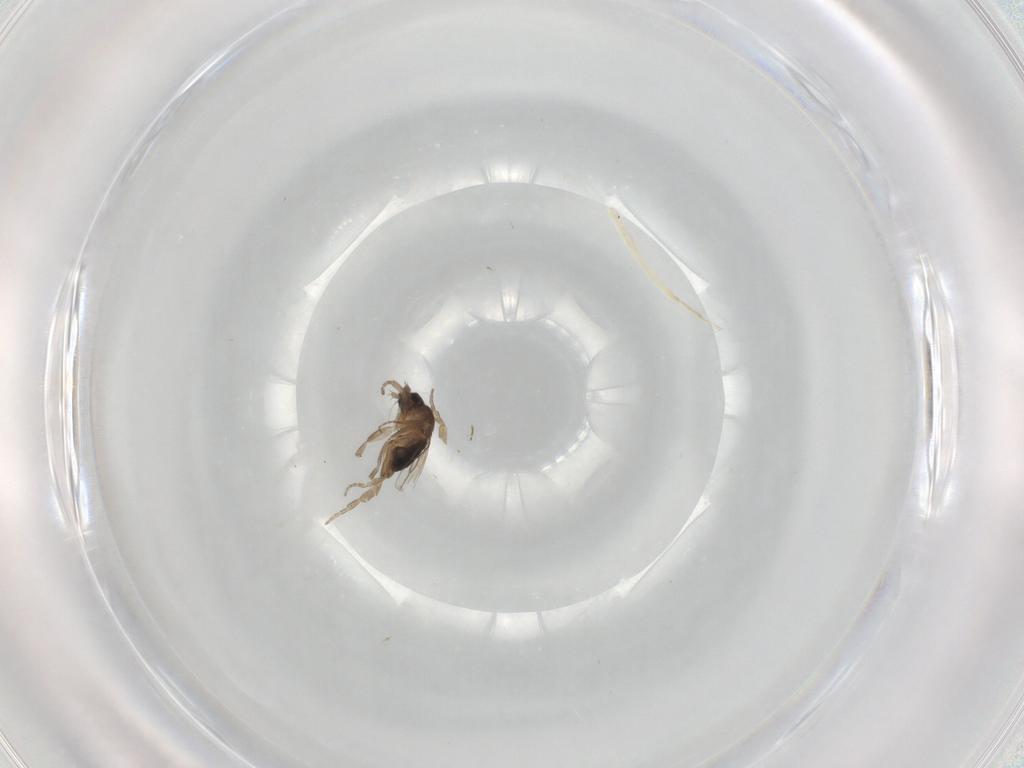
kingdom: Animalia
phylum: Arthropoda
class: Insecta
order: Diptera
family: Phoridae
